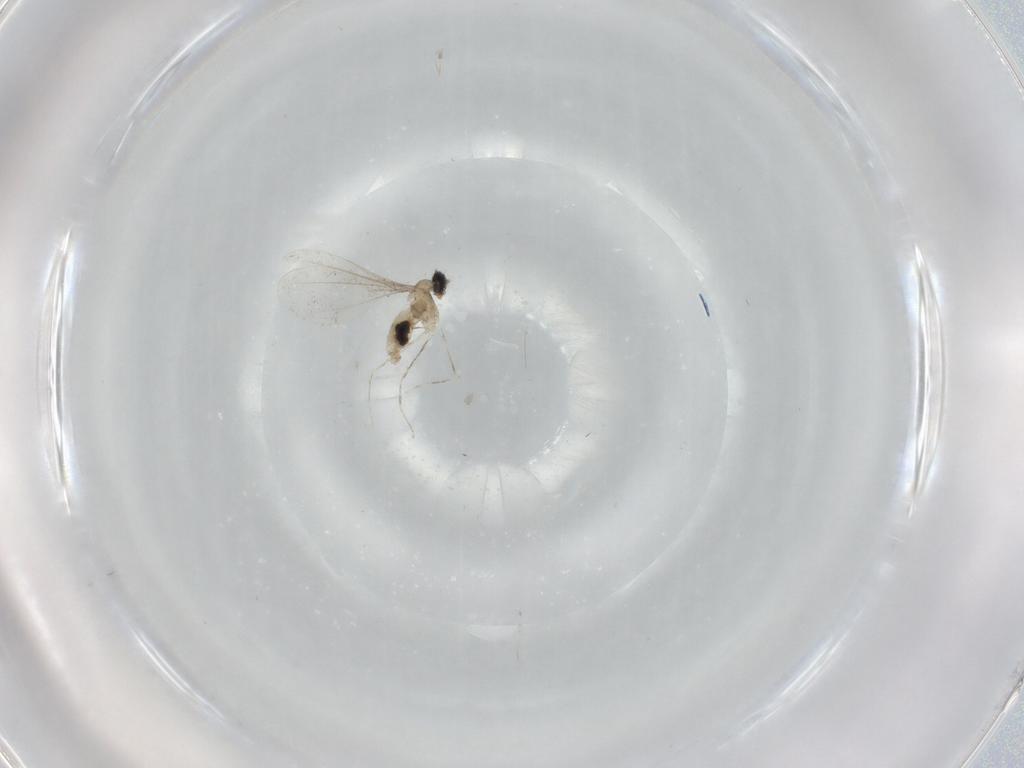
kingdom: Animalia
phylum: Arthropoda
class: Insecta
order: Diptera
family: Cecidomyiidae
